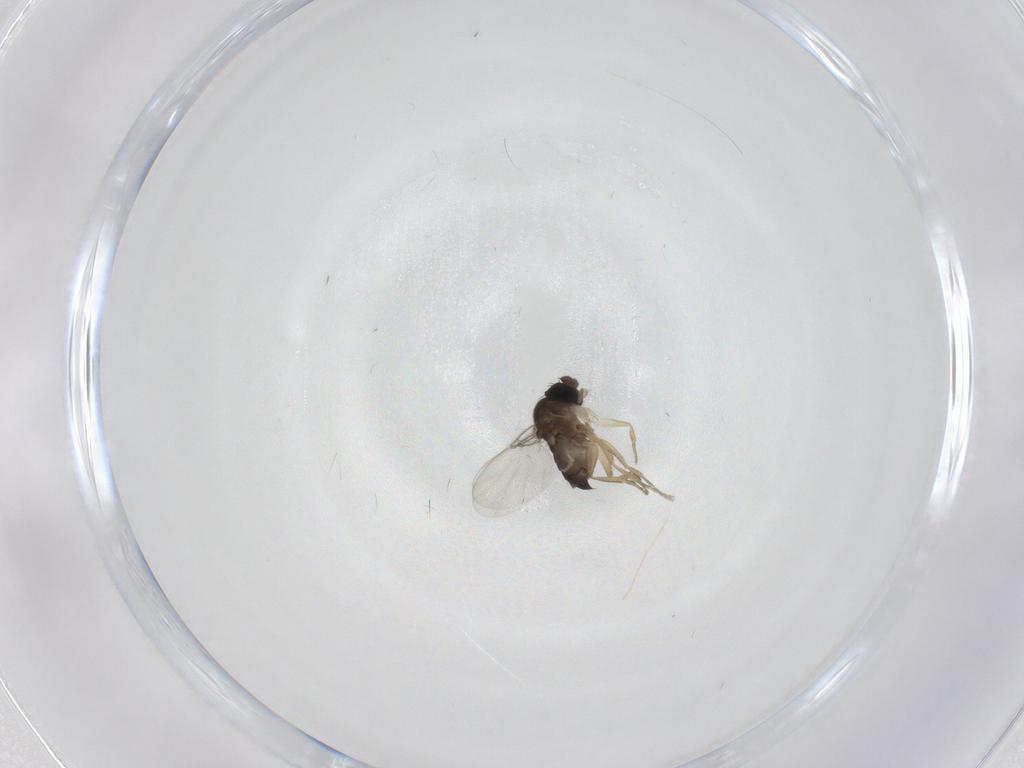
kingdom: Animalia
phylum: Arthropoda
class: Insecta
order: Diptera
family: Phoridae
